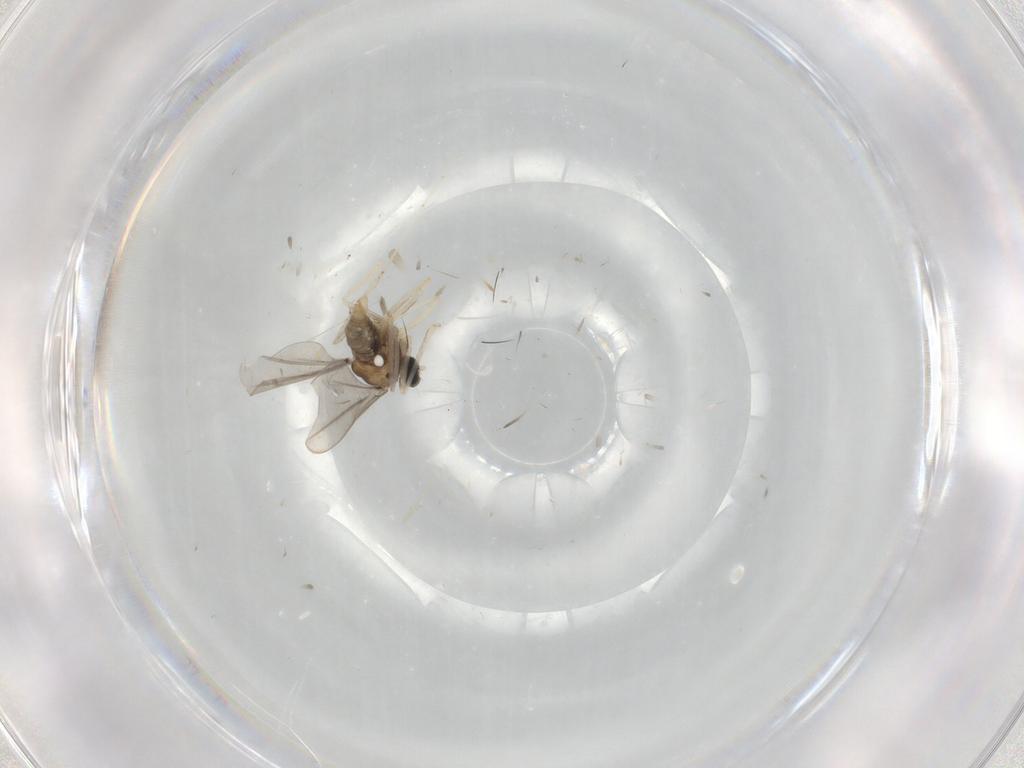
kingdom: Animalia
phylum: Arthropoda
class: Insecta
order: Diptera
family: Cecidomyiidae
